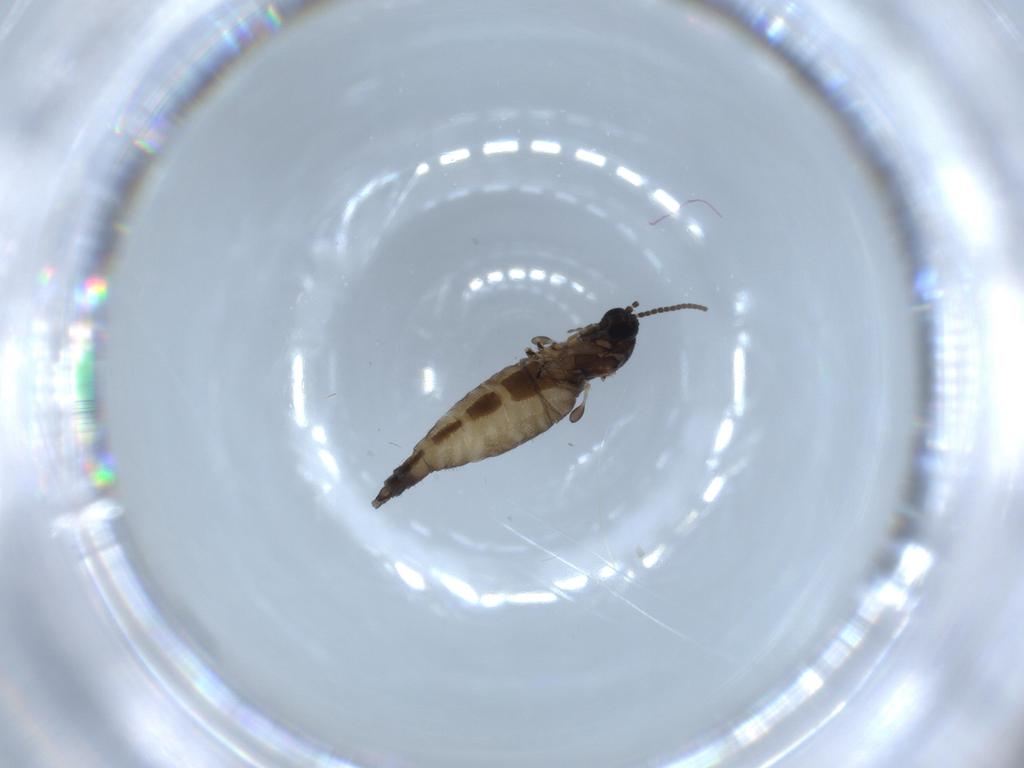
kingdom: Animalia
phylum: Arthropoda
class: Insecta
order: Diptera
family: Sciaridae
